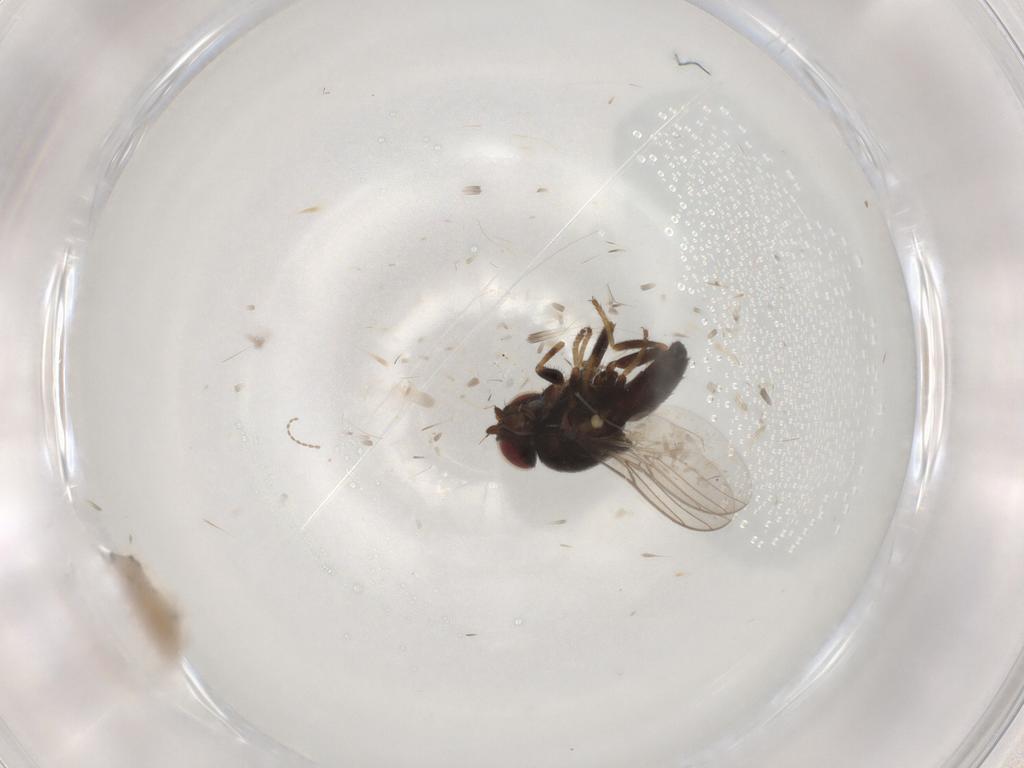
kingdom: Animalia
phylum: Arthropoda
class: Insecta
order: Diptera
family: Cecidomyiidae
